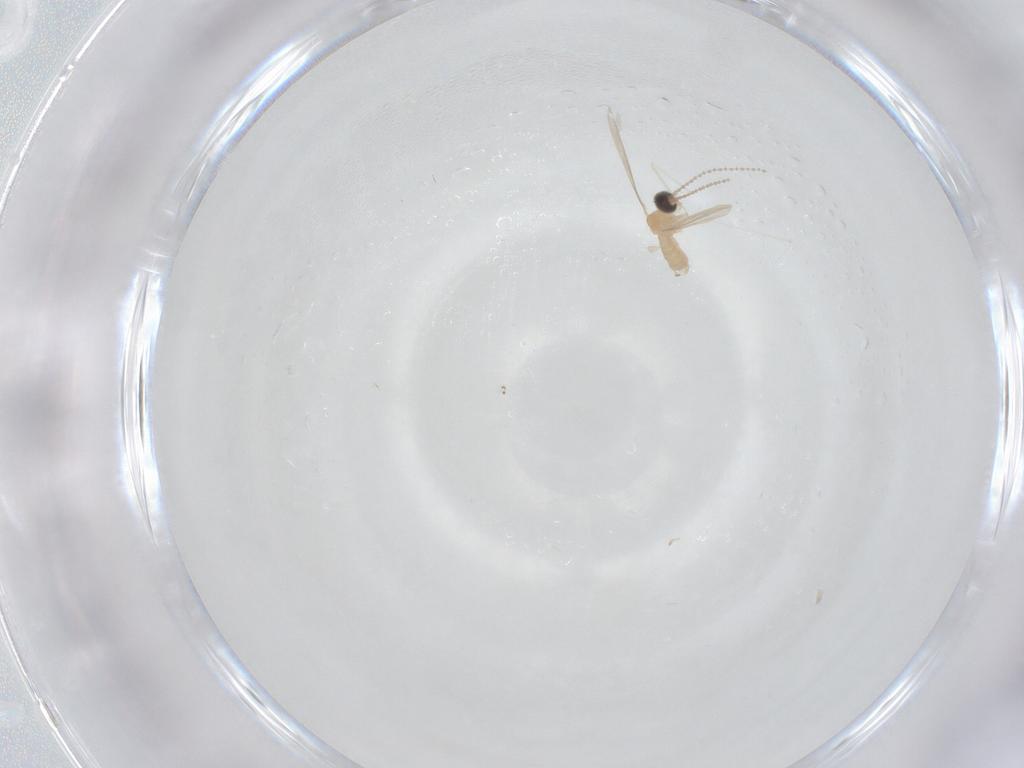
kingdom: Animalia
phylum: Arthropoda
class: Insecta
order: Diptera
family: Cecidomyiidae
